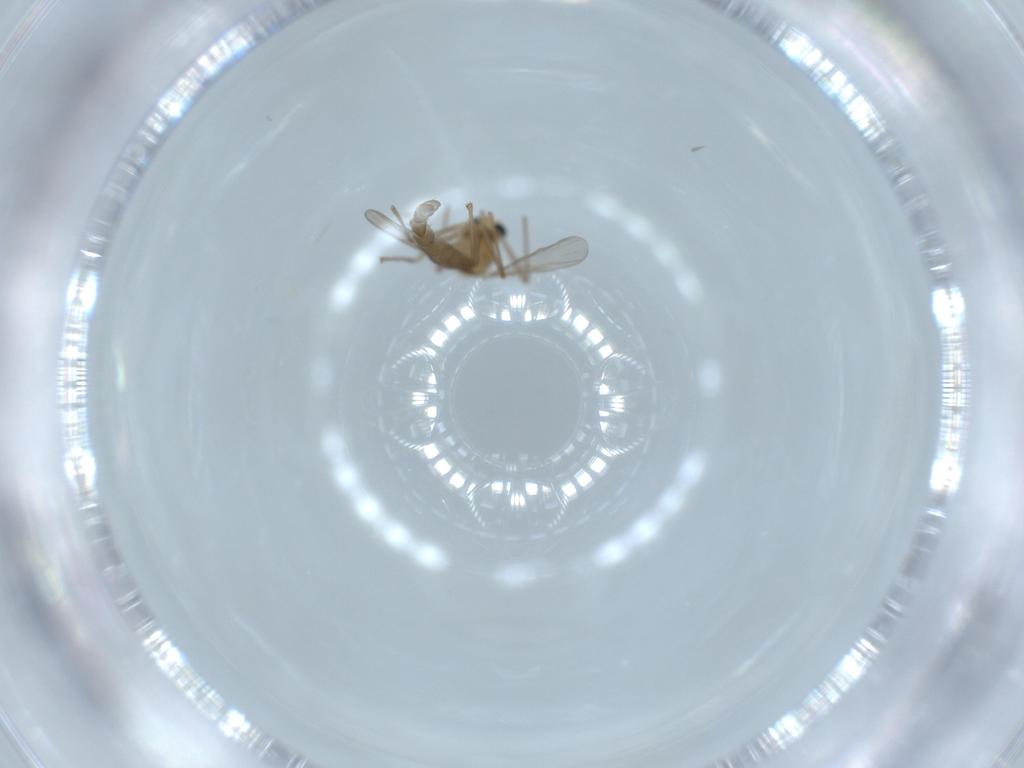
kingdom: Animalia
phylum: Arthropoda
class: Insecta
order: Diptera
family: Chironomidae
